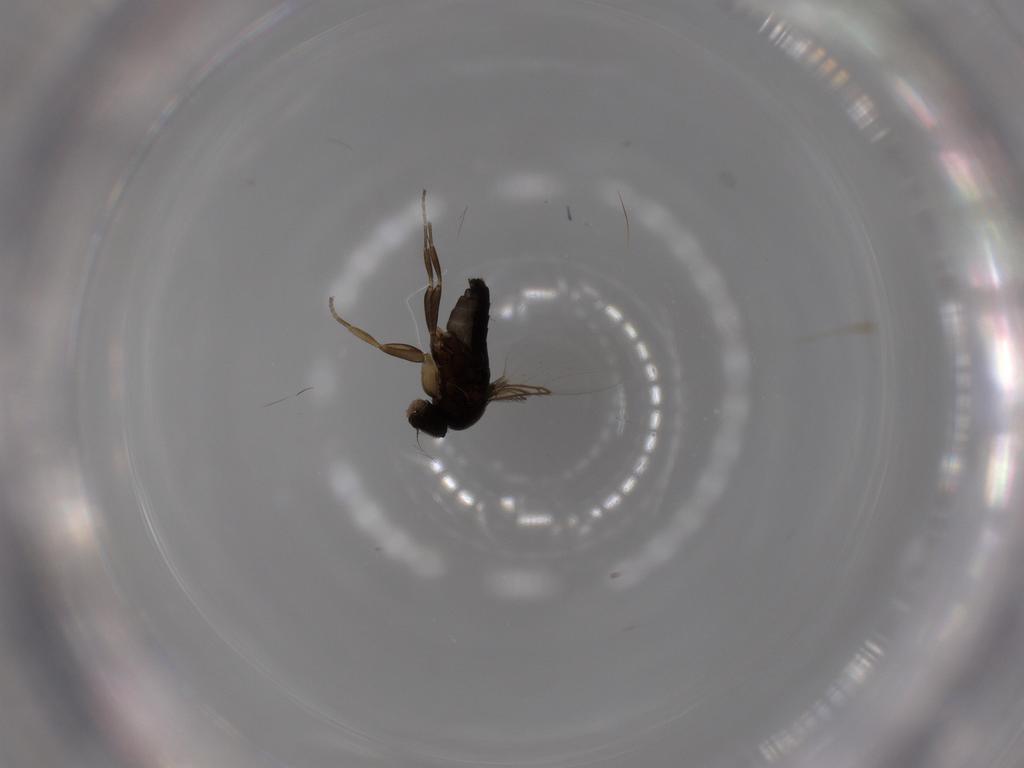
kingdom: Animalia
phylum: Arthropoda
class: Insecta
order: Diptera
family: Phoridae
